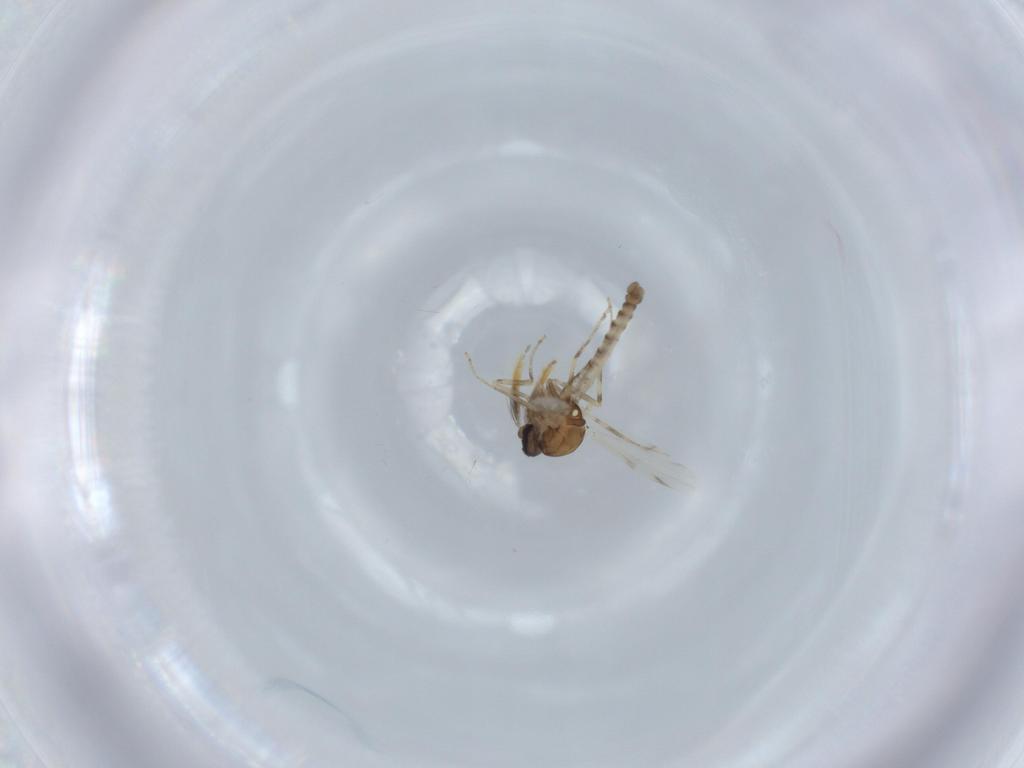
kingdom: Animalia
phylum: Arthropoda
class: Insecta
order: Diptera
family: Ceratopogonidae
